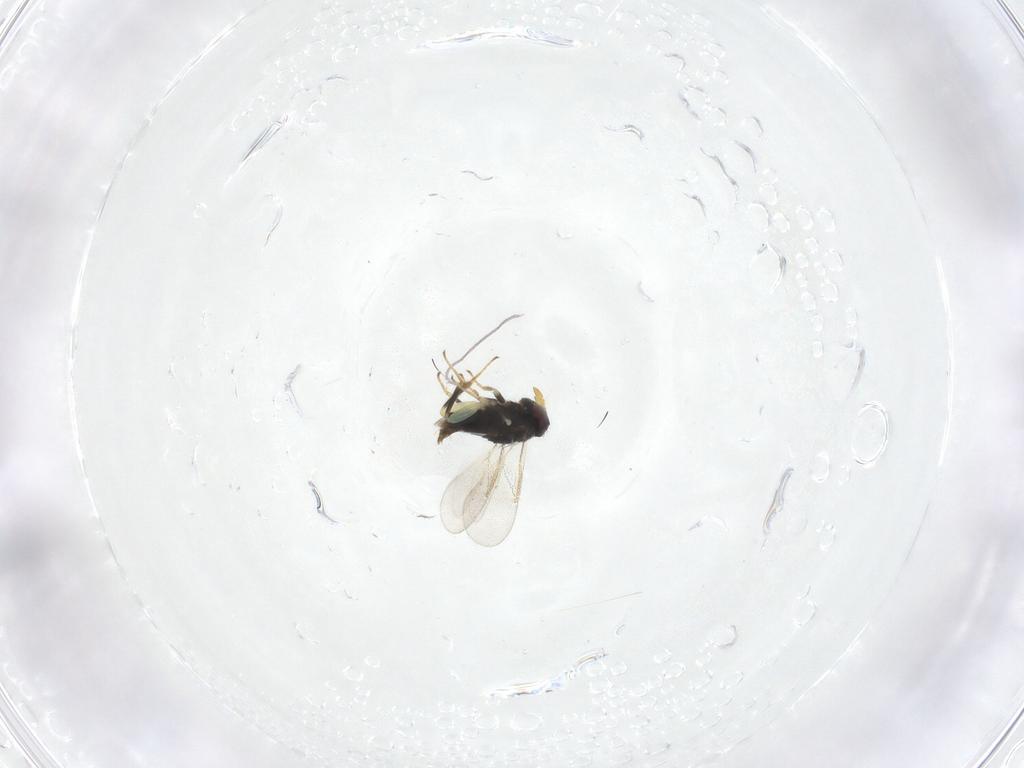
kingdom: Animalia
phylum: Arthropoda
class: Insecta
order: Hymenoptera
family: Aphelinidae
